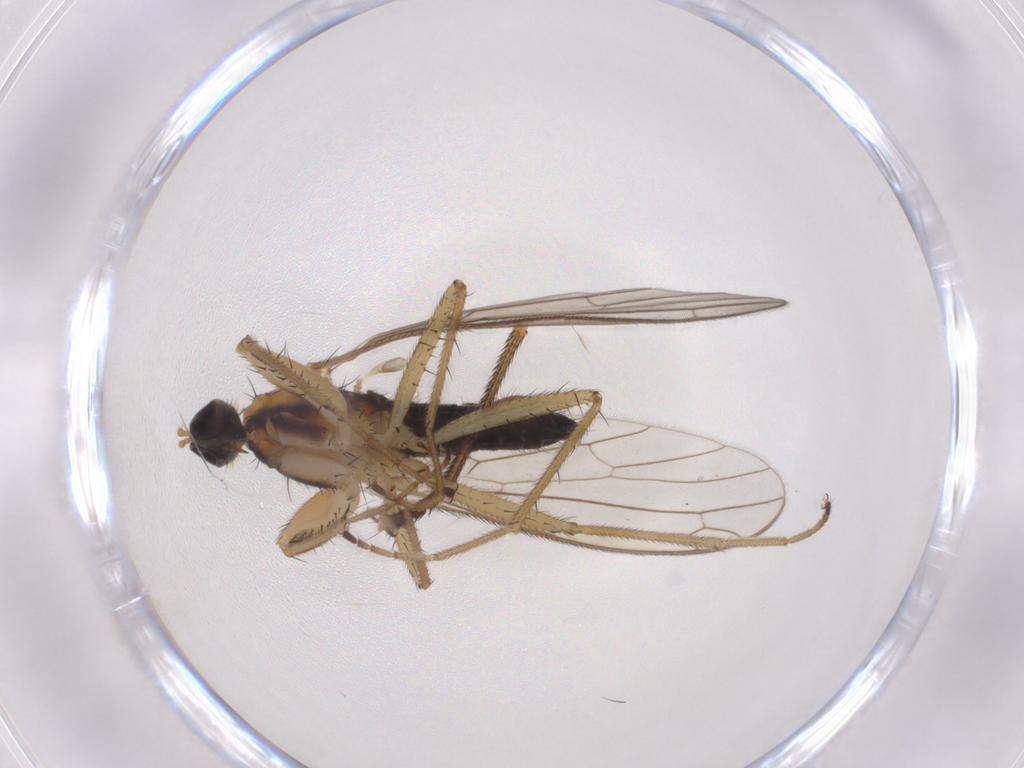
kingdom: Animalia
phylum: Arthropoda
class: Insecta
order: Diptera
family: Empididae
